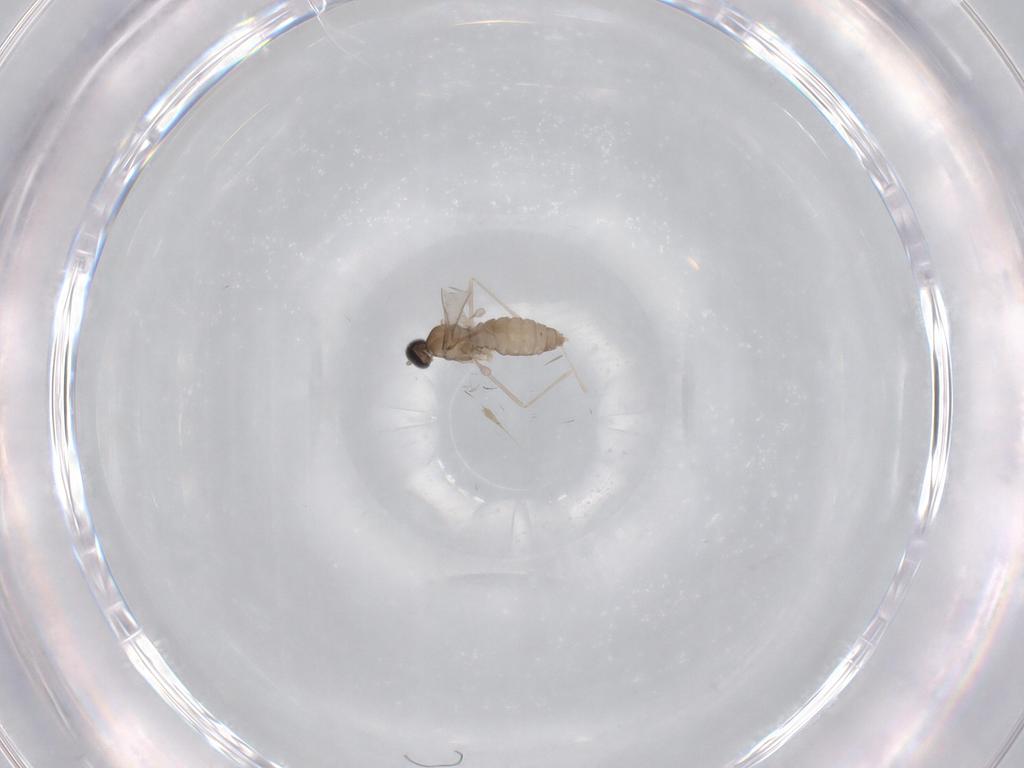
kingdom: Animalia
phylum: Arthropoda
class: Insecta
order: Diptera
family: Cecidomyiidae
